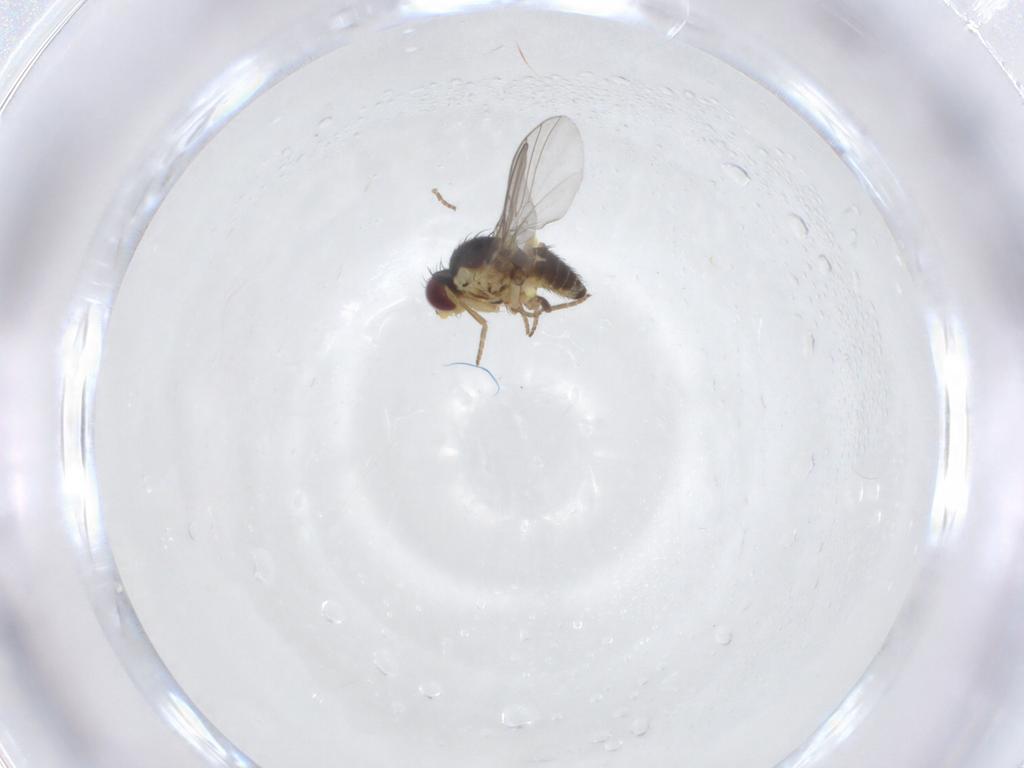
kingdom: Animalia
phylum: Arthropoda
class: Insecta
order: Diptera
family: Agromyzidae
